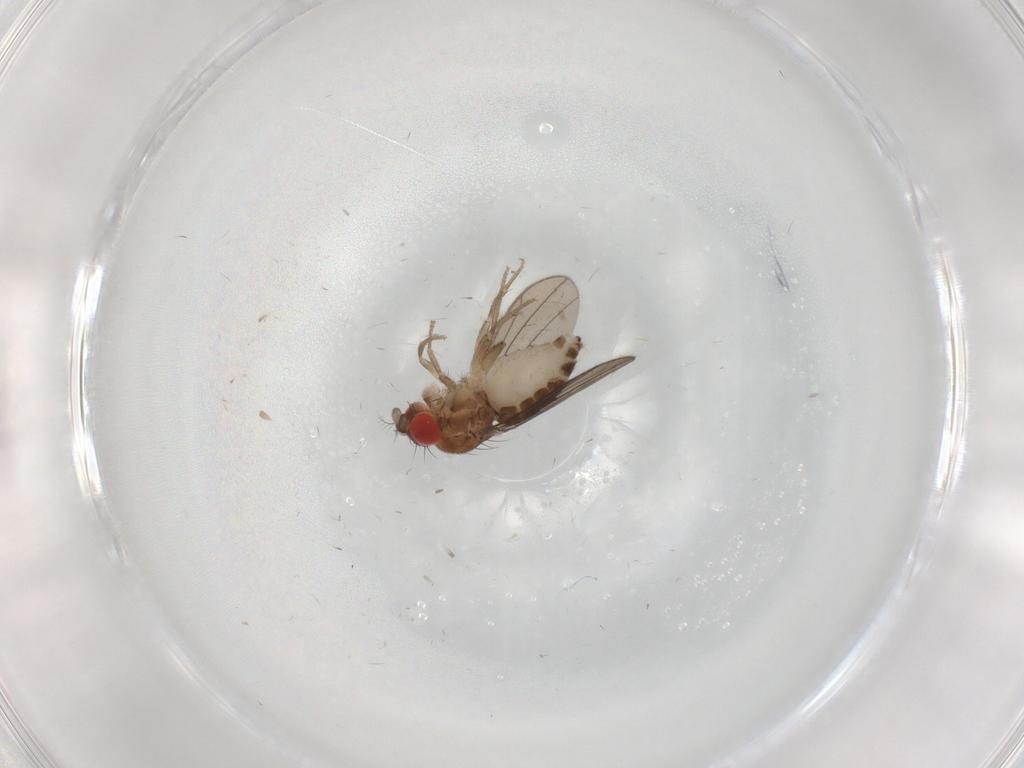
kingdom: Animalia
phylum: Arthropoda
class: Insecta
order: Diptera
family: Drosophilidae
